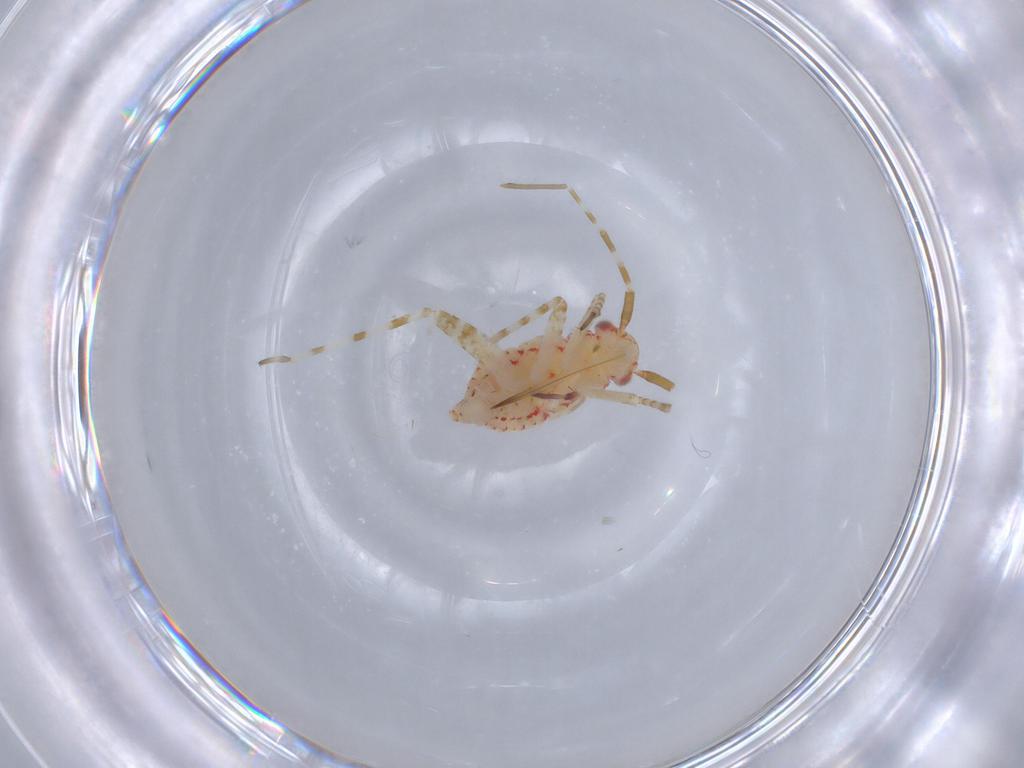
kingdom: Animalia
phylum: Arthropoda
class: Insecta
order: Hemiptera
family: Miridae
